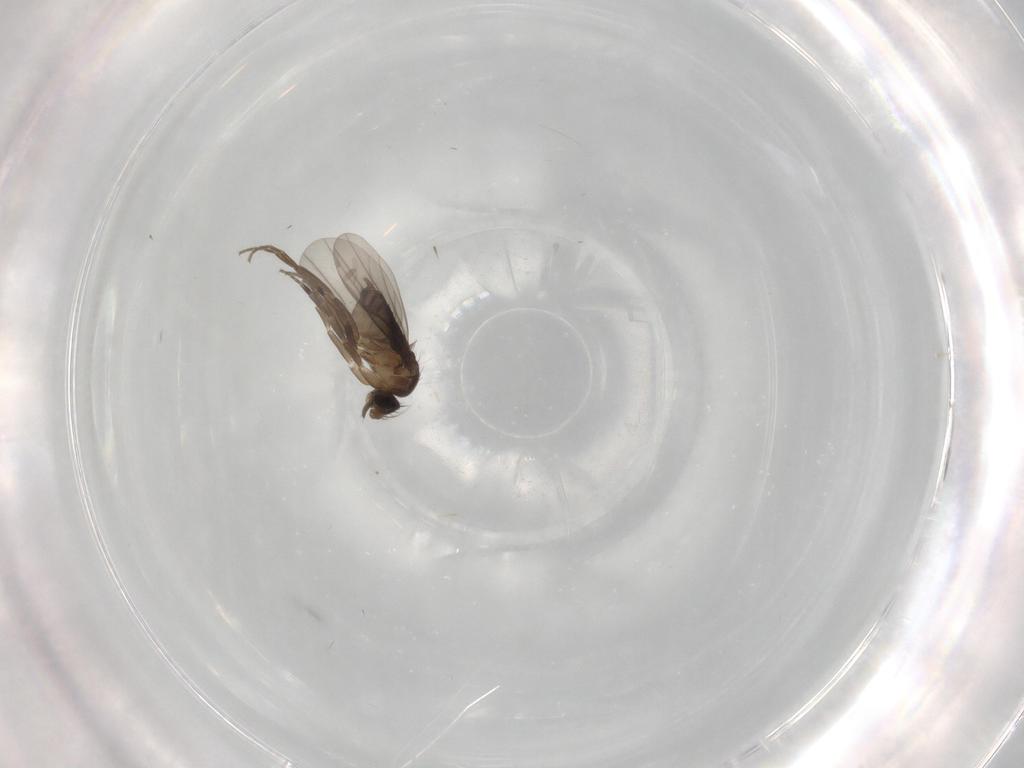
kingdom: Animalia
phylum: Arthropoda
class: Insecta
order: Diptera
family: Phoridae
